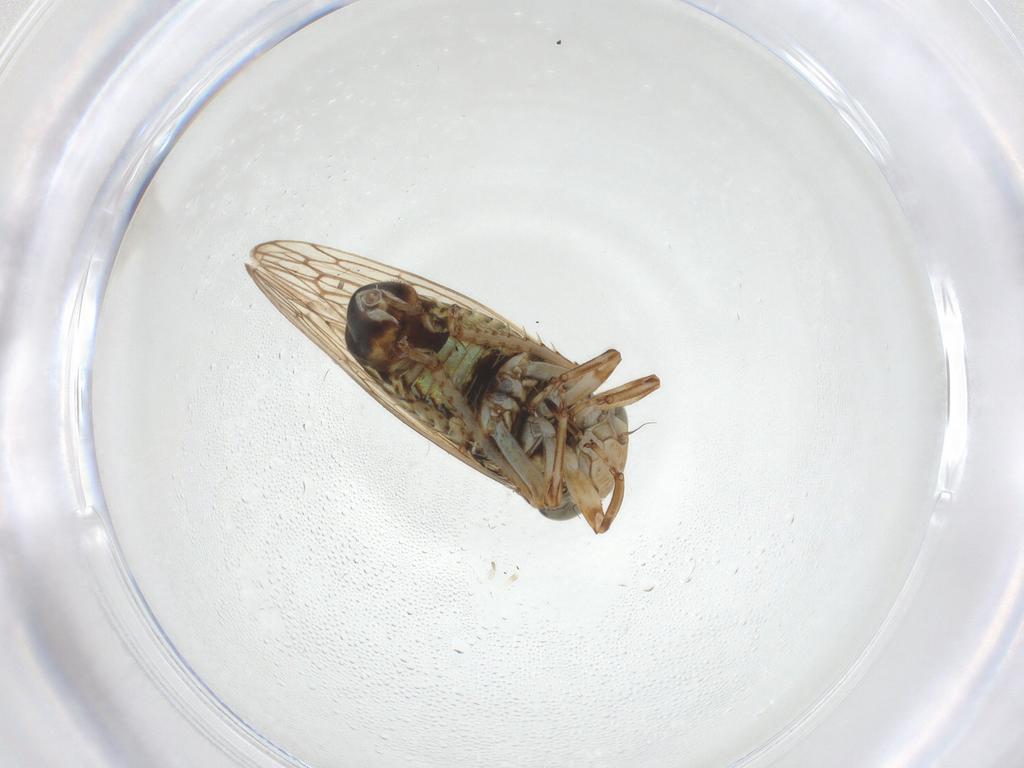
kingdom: Animalia
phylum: Arthropoda
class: Insecta
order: Hemiptera
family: Cicadellidae
